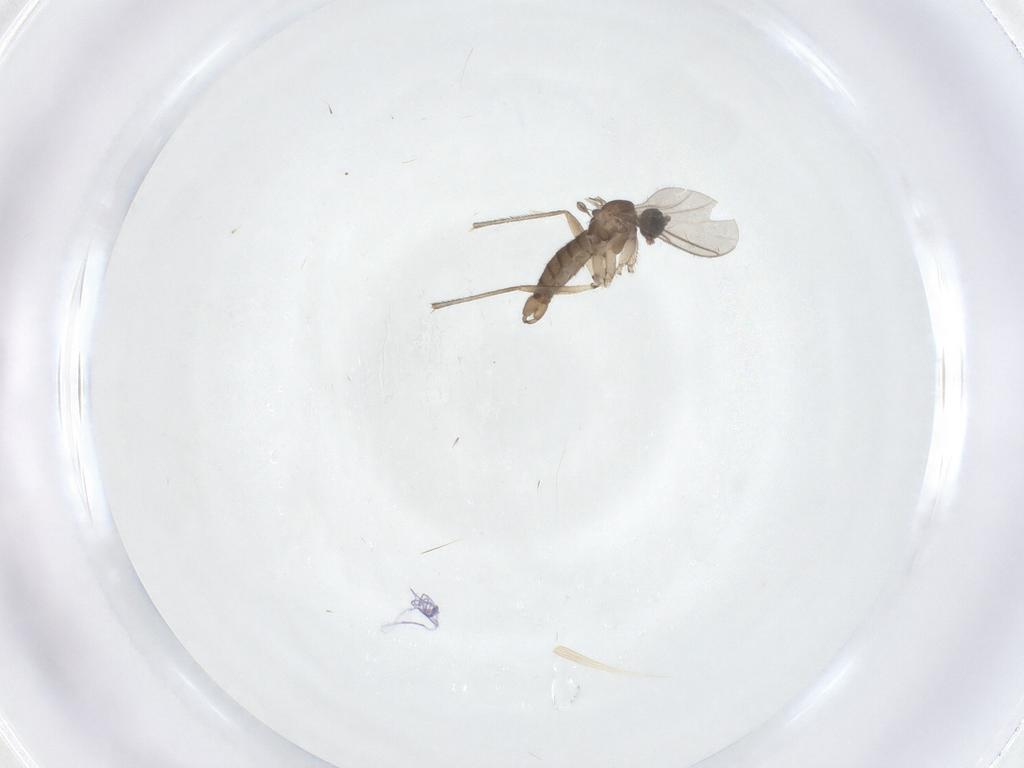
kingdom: Animalia
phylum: Arthropoda
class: Insecta
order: Diptera
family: Sciaridae
